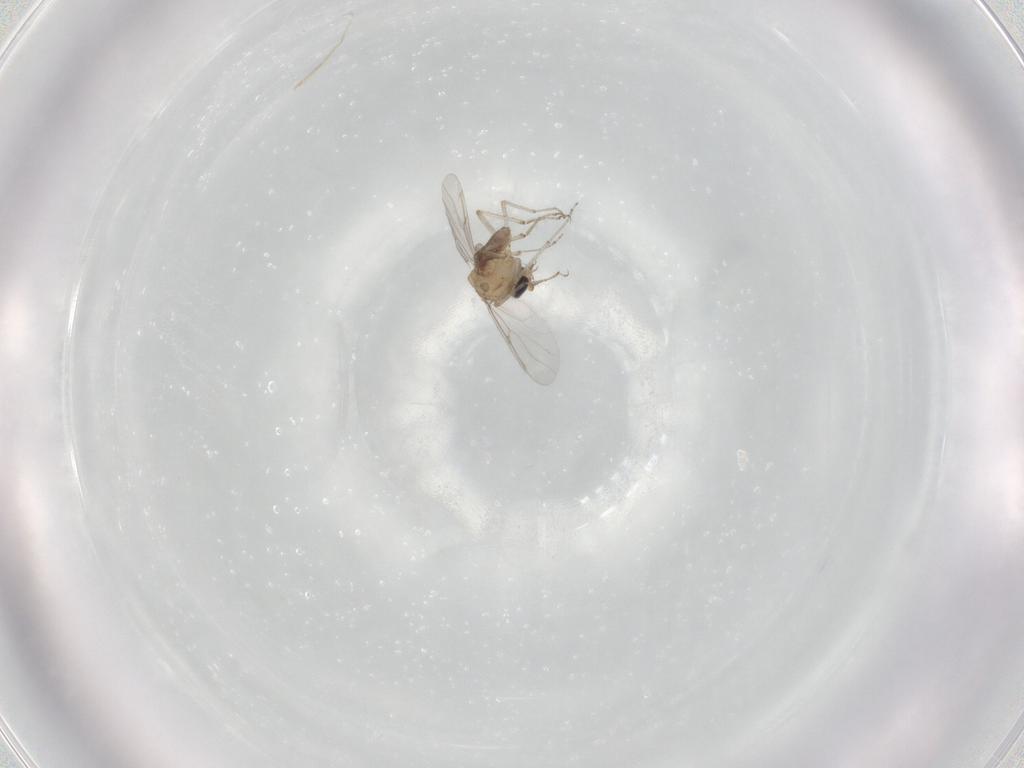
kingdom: Animalia
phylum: Arthropoda
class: Insecta
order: Diptera
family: Ceratopogonidae
